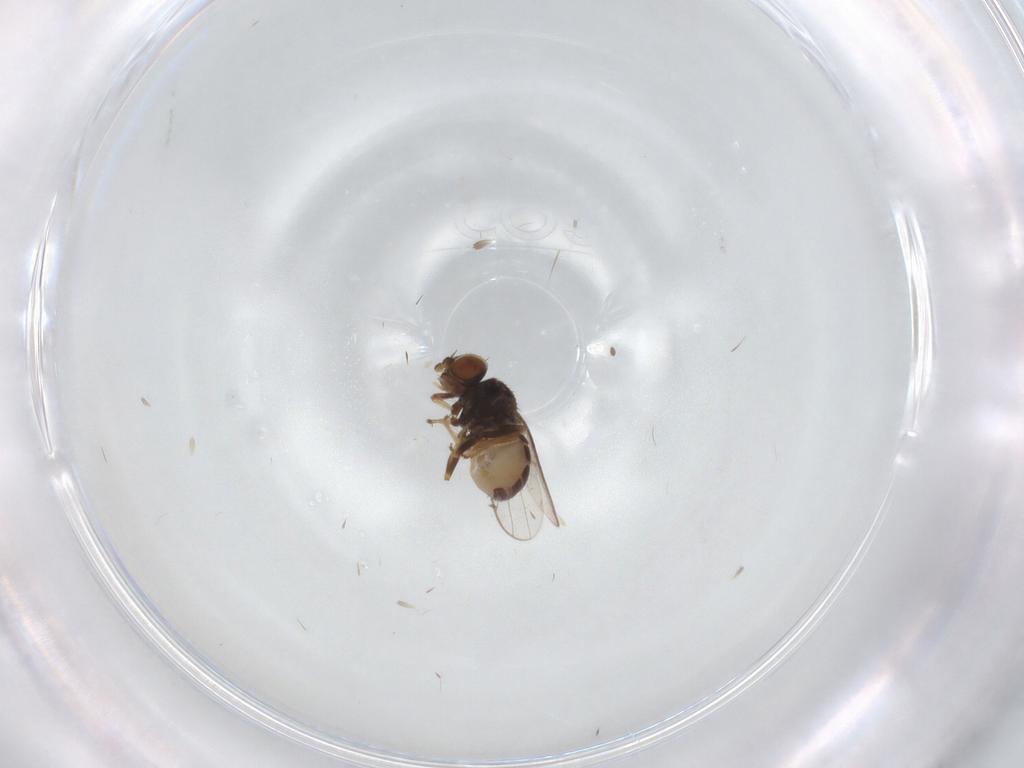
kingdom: Animalia
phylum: Arthropoda
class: Insecta
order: Diptera
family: Chloropidae
